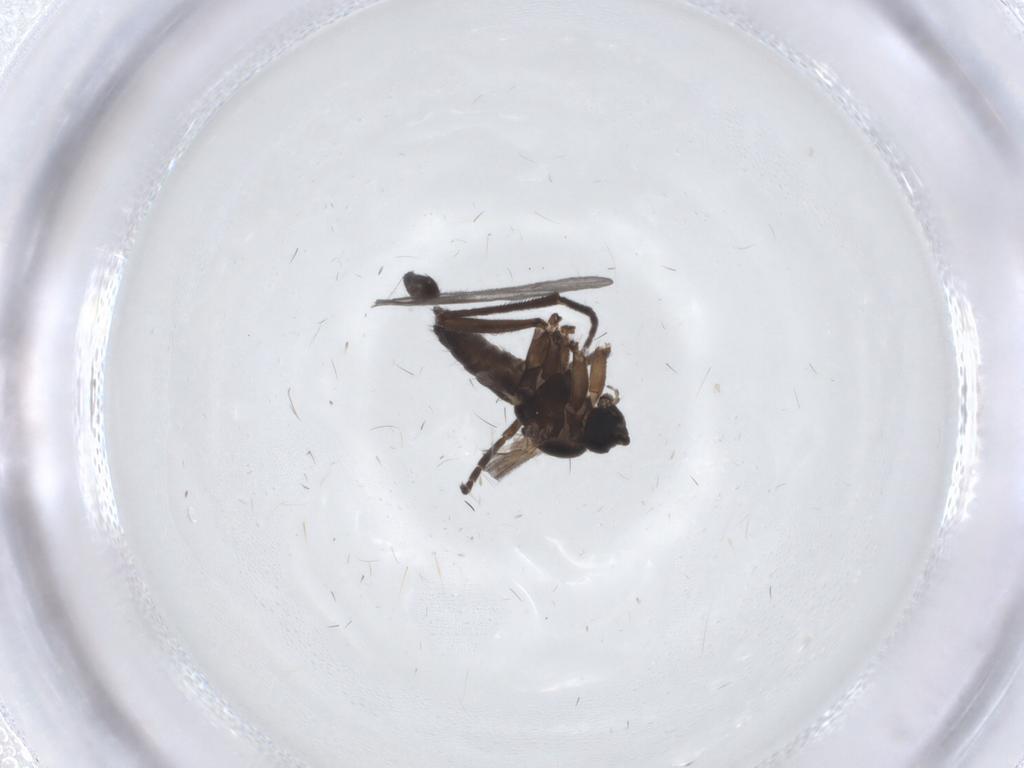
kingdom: Animalia
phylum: Arthropoda
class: Insecta
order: Diptera
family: Sciaridae
